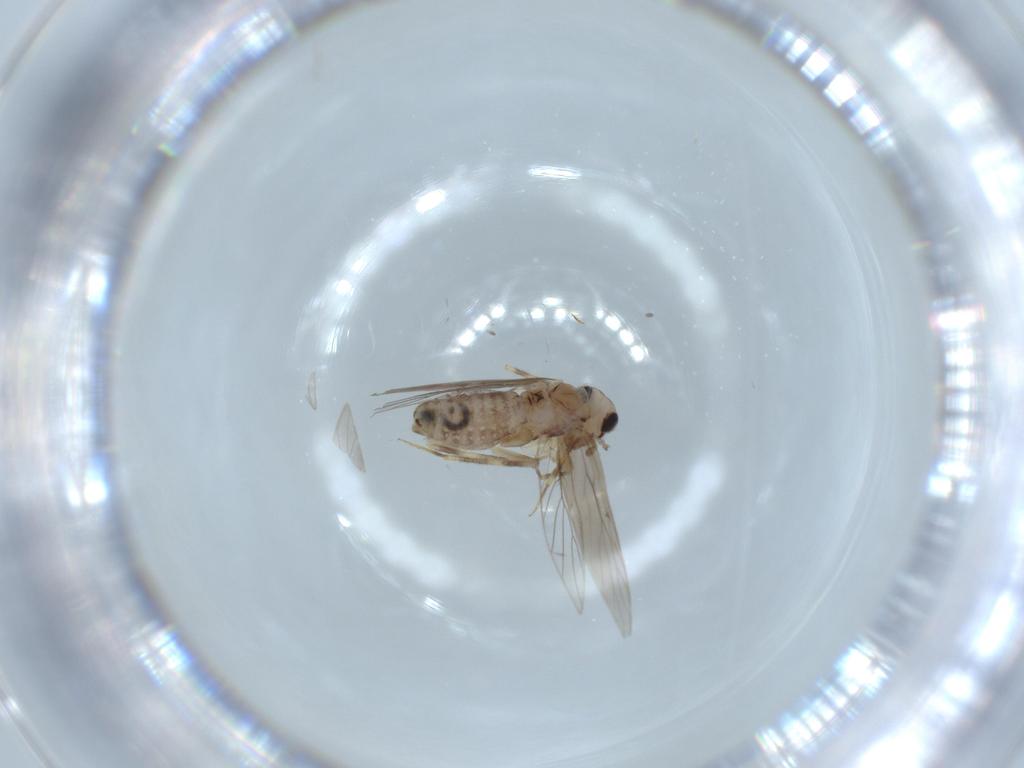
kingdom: Animalia
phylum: Arthropoda
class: Insecta
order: Psocodea
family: Lepidopsocidae
